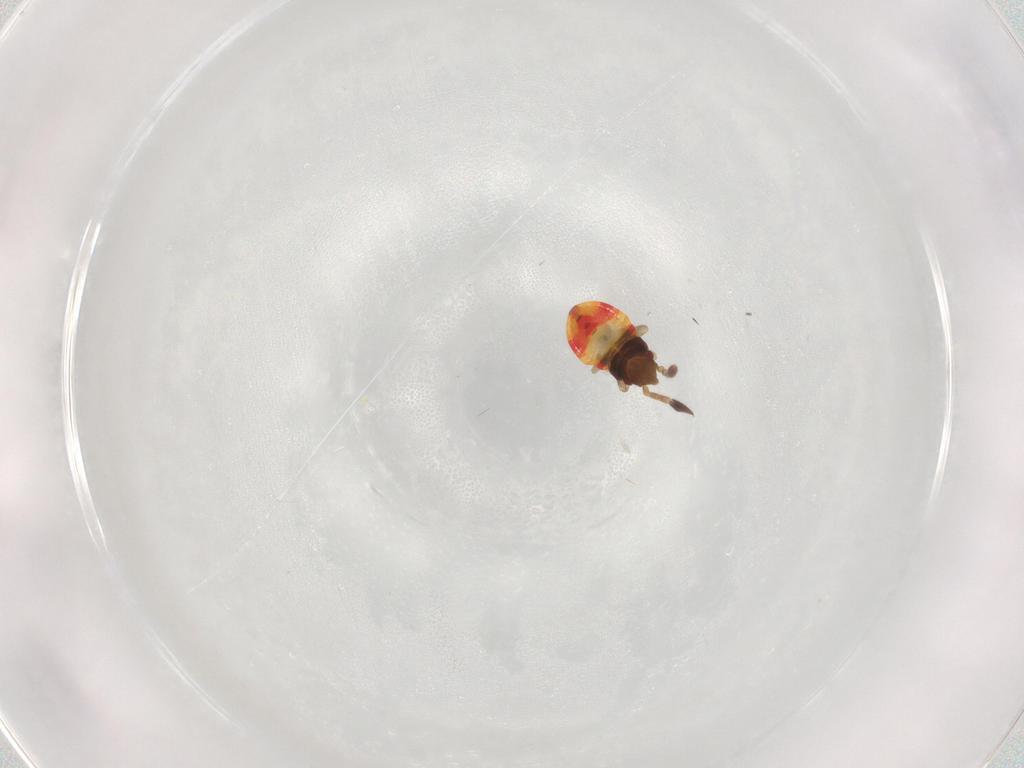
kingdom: Animalia
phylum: Arthropoda
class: Insecta
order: Hemiptera
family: Rhyparochromidae
